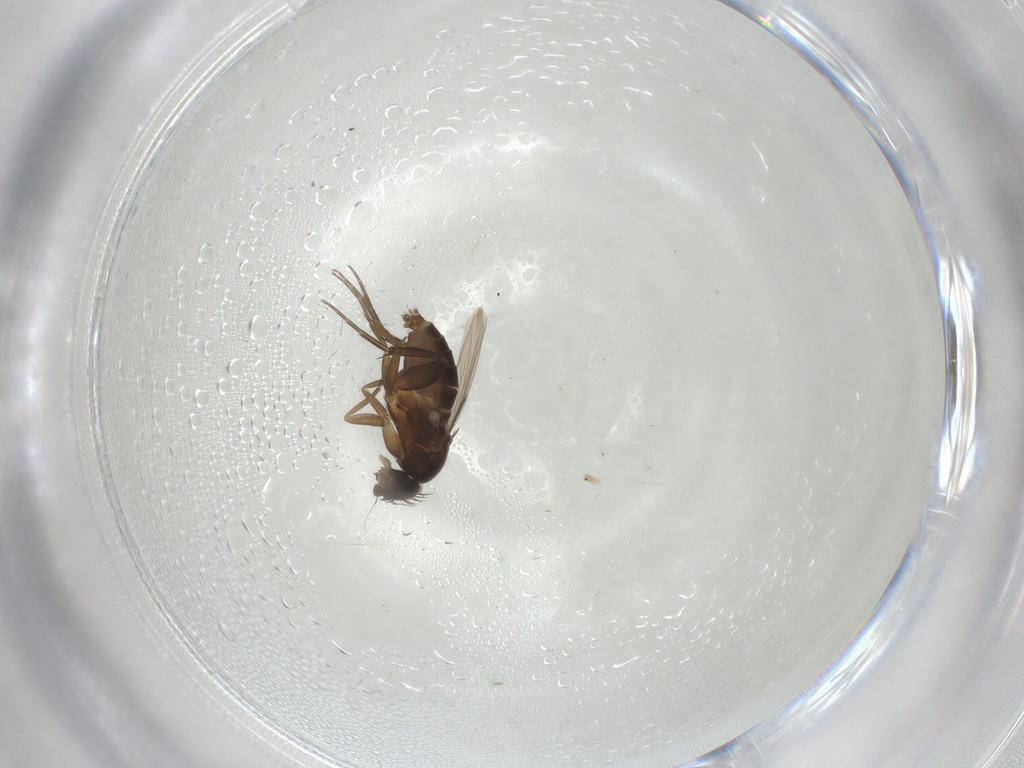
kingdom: Animalia
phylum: Arthropoda
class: Insecta
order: Diptera
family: Phoridae
